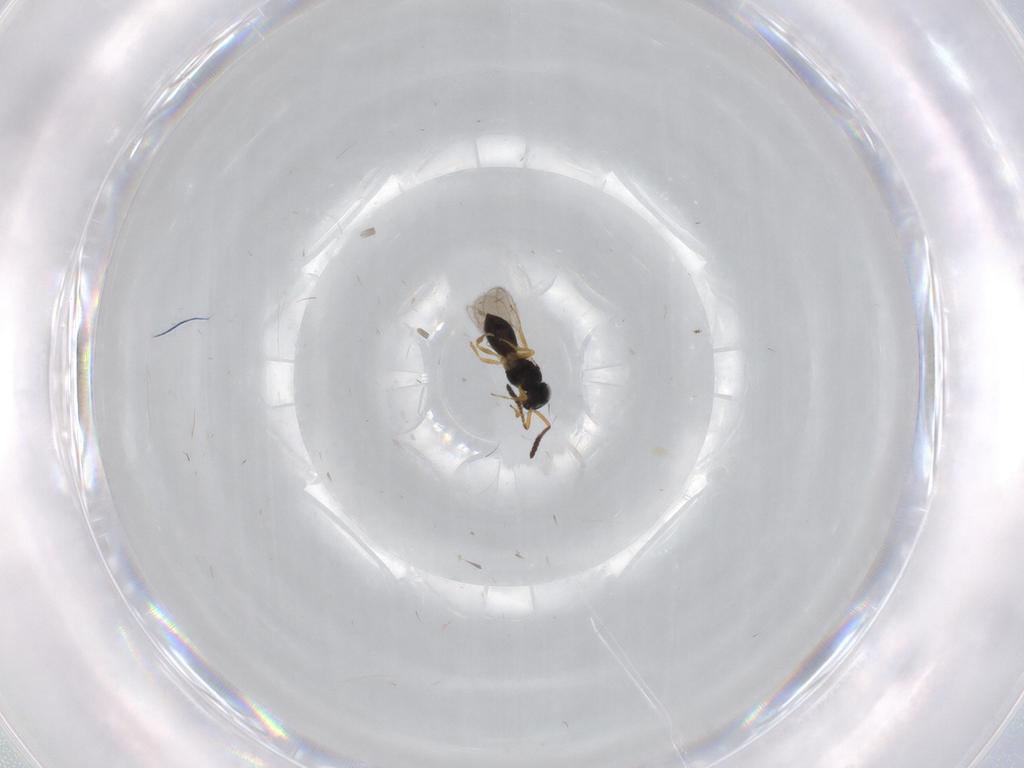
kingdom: Animalia
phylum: Arthropoda
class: Insecta
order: Hymenoptera
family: Scelionidae
